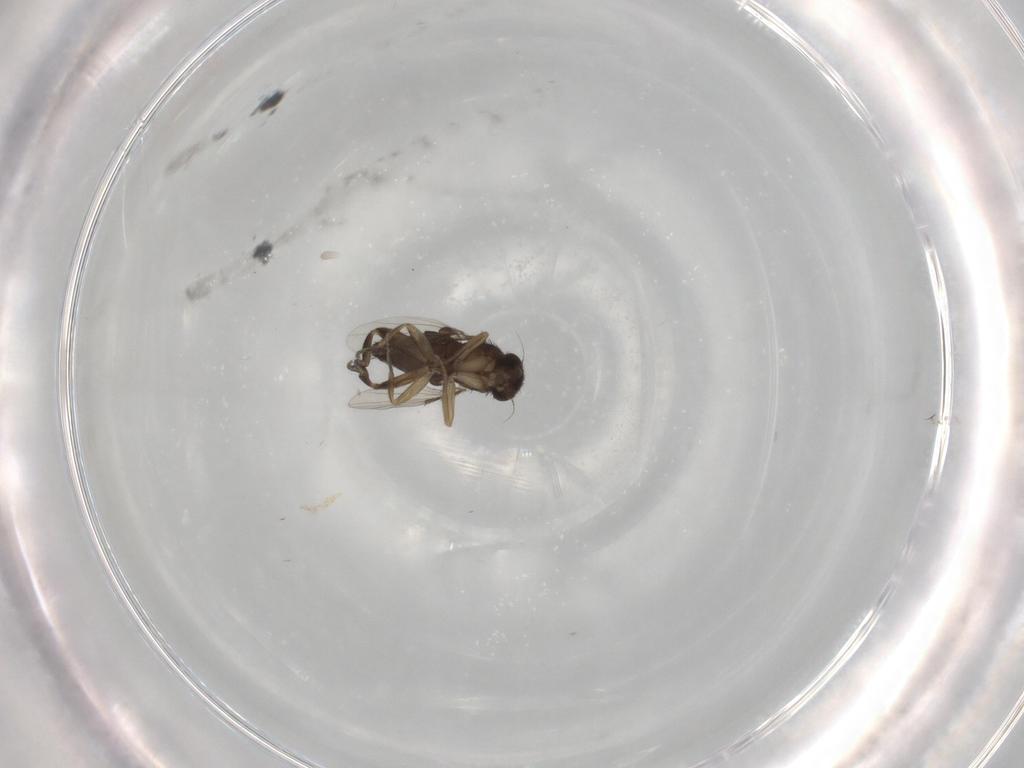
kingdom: Animalia
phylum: Arthropoda
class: Insecta
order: Diptera
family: Phoridae
